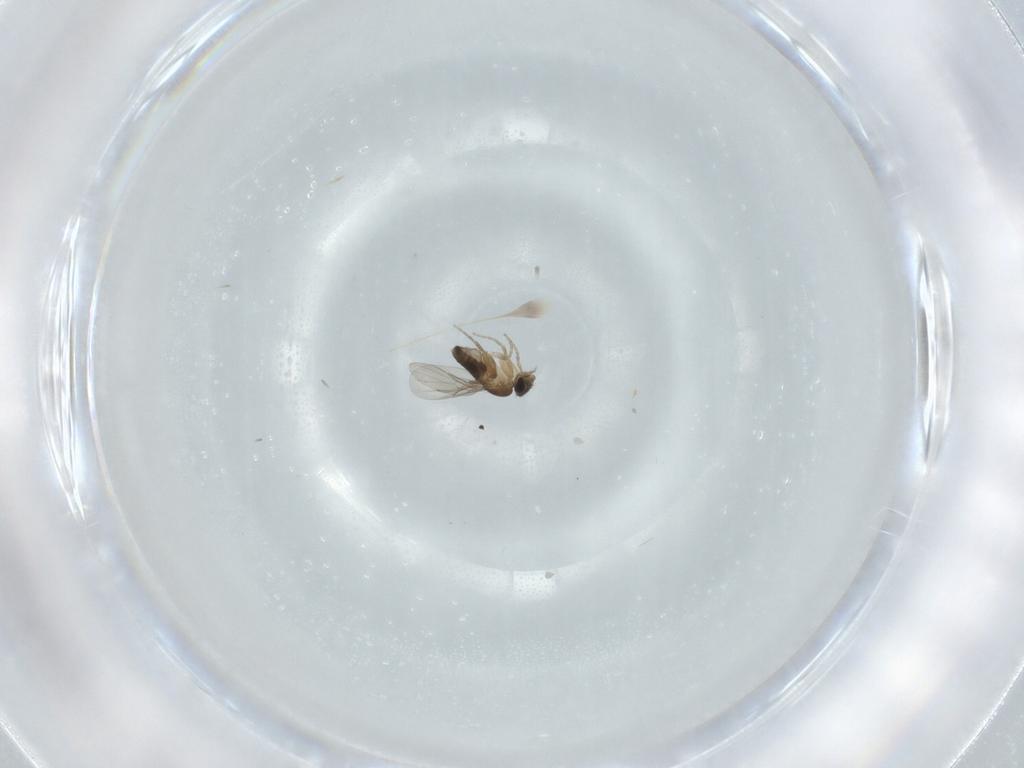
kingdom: Animalia
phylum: Arthropoda
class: Insecta
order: Diptera
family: Phoridae
